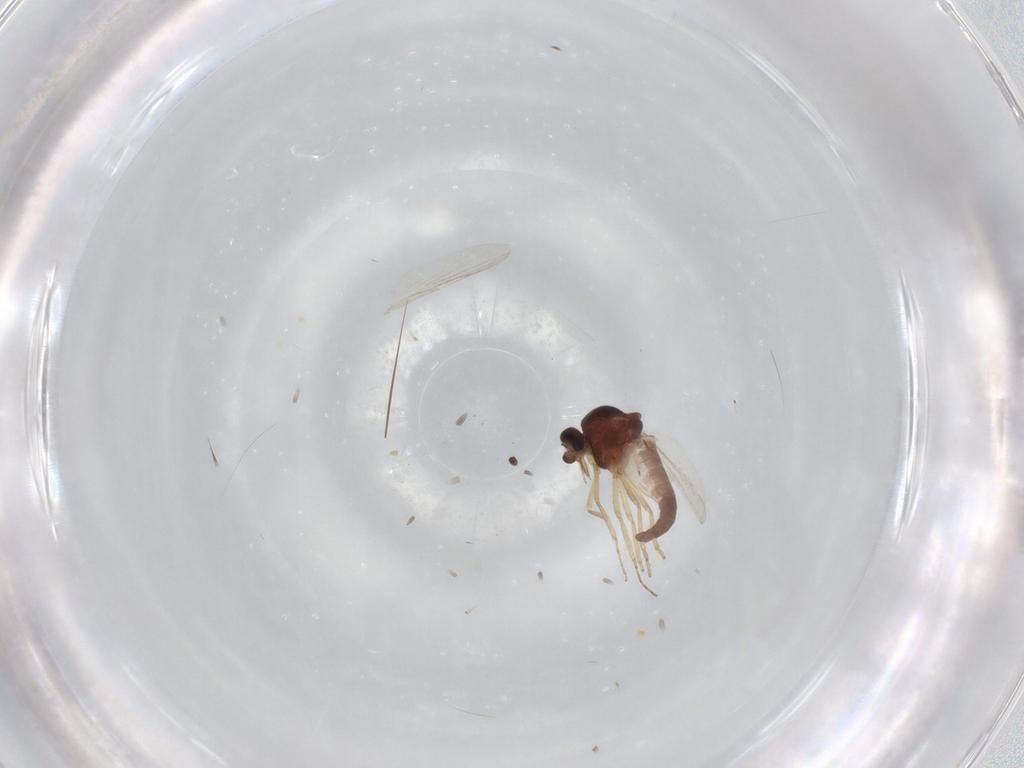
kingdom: Animalia
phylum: Arthropoda
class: Insecta
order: Diptera
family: Ceratopogonidae
